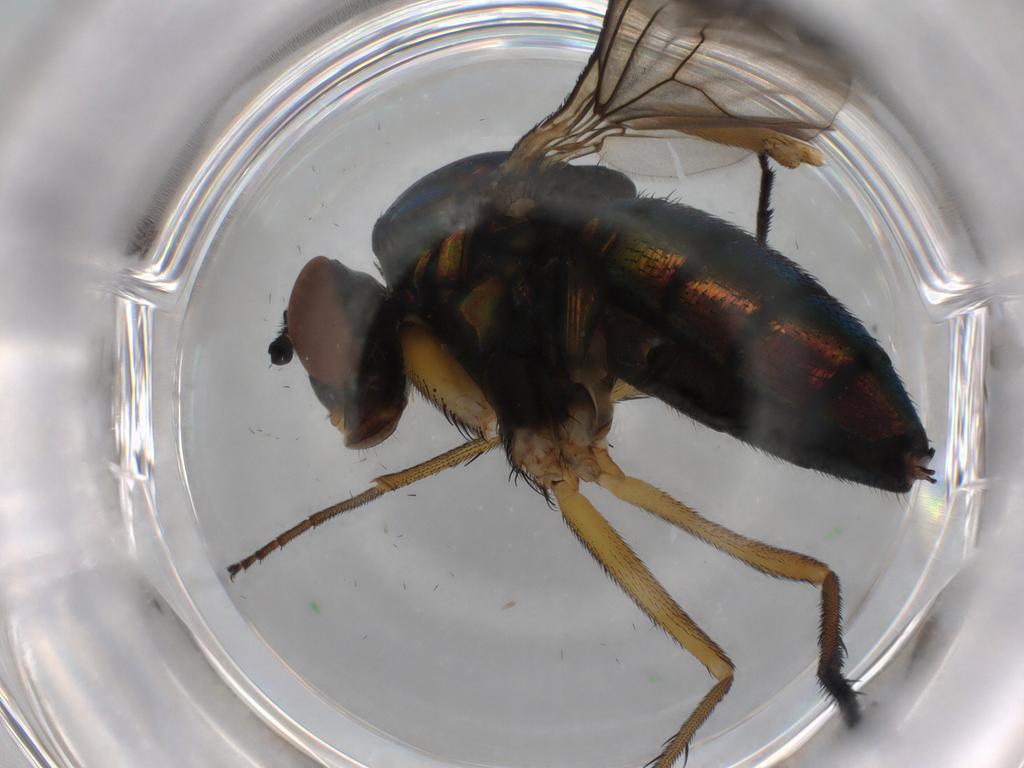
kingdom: Animalia
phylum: Arthropoda
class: Insecta
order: Diptera
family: Dolichopodidae
